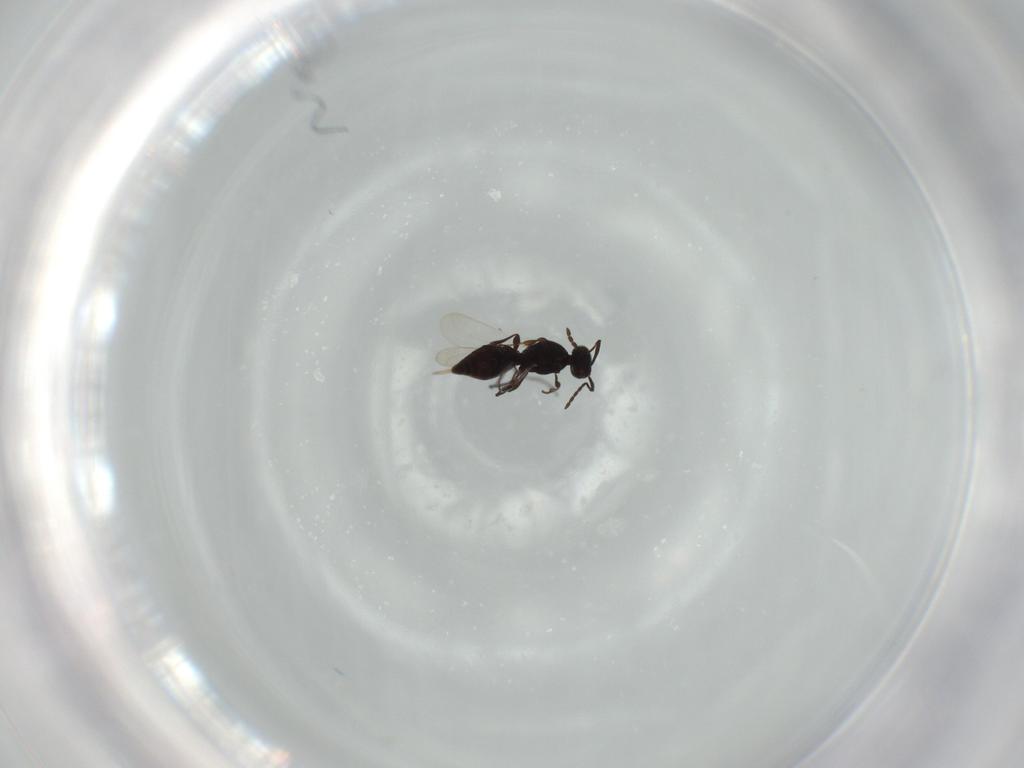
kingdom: Animalia
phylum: Arthropoda
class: Insecta
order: Hymenoptera
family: Platygastridae
